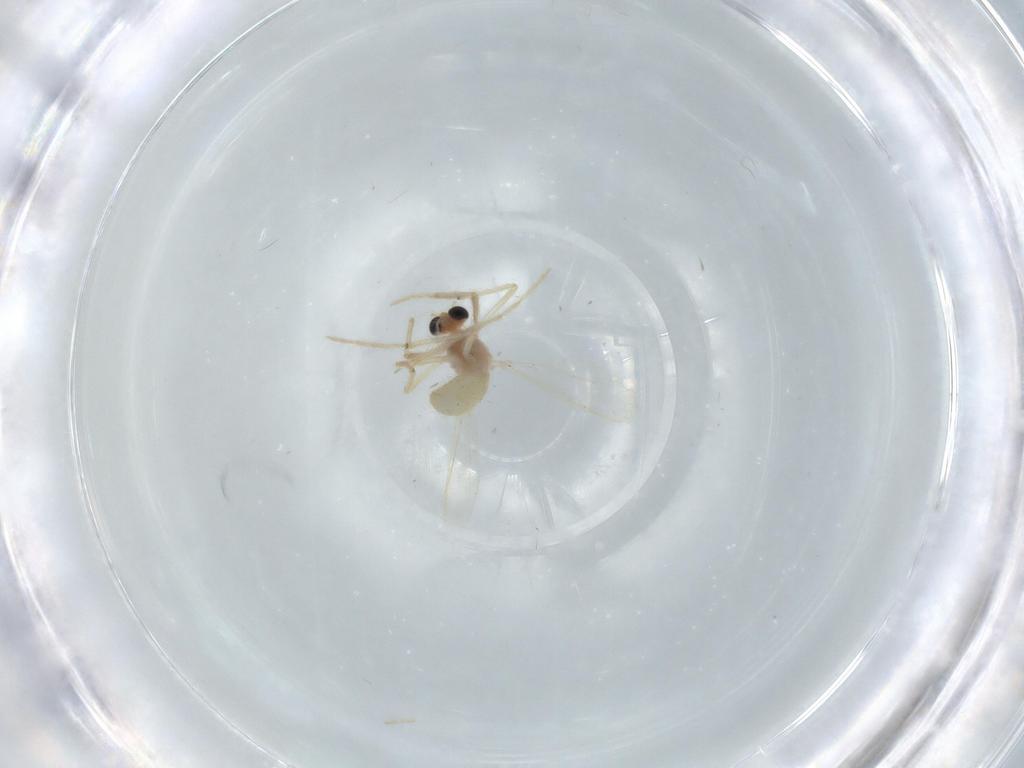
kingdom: Animalia
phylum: Arthropoda
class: Insecta
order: Diptera
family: Chironomidae
